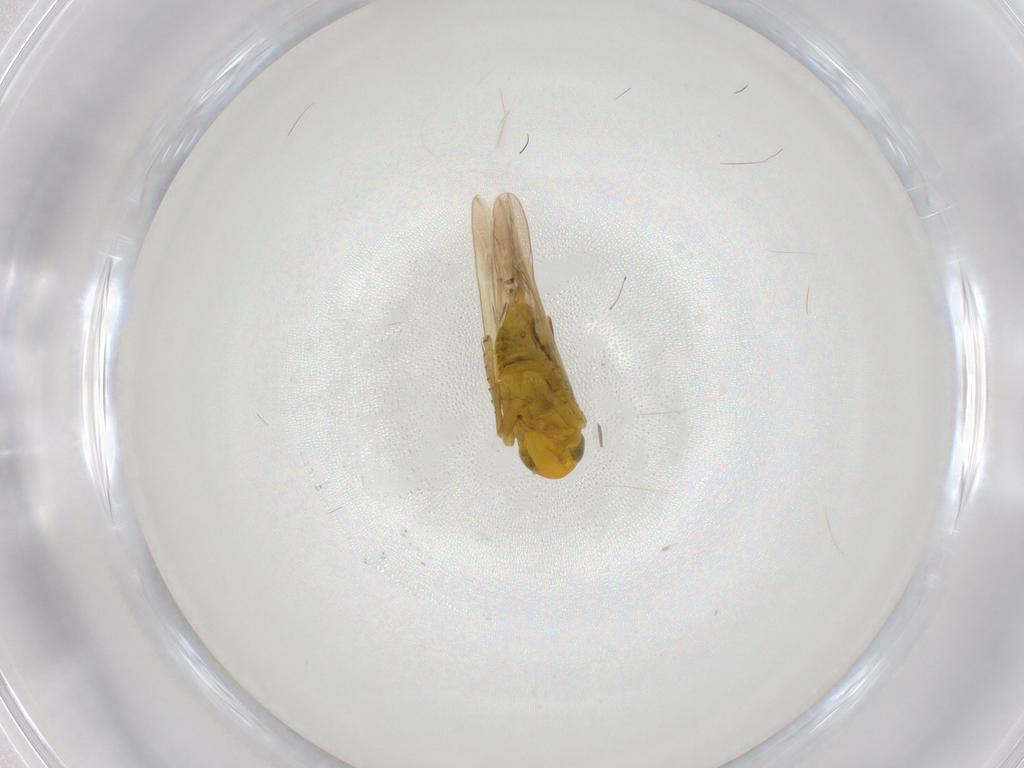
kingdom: Animalia
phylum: Arthropoda
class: Insecta
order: Hemiptera
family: Cicadellidae
